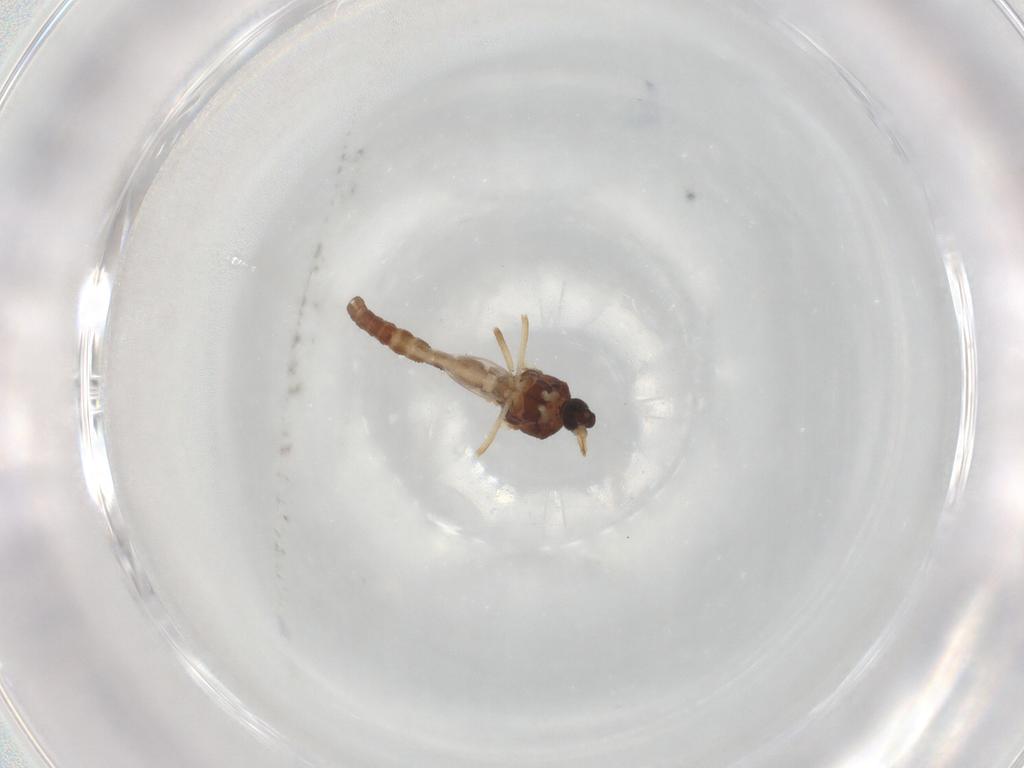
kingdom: Animalia
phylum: Arthropoda
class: Insecta
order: Diptera
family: Ceratopogonidae
